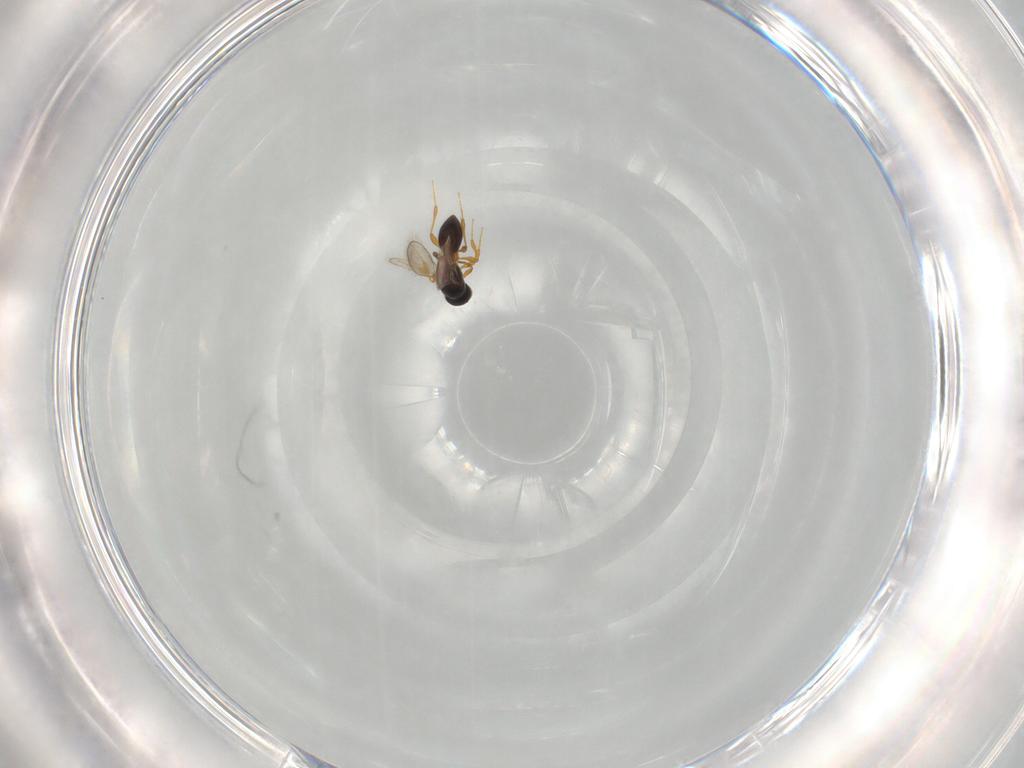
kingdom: Animalia
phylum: Arthropoda
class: Insecta
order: Hymenoptera
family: Platygastridae
